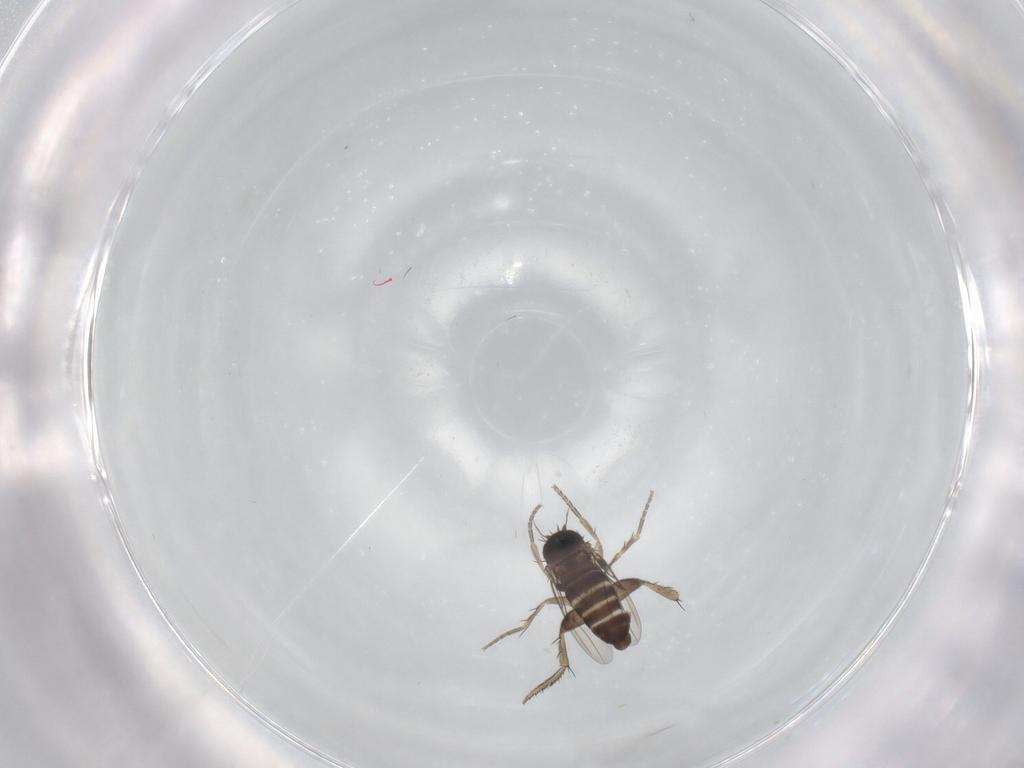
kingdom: Animalia
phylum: Arthropoda
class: Insecta
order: Diptera
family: Phoridae
